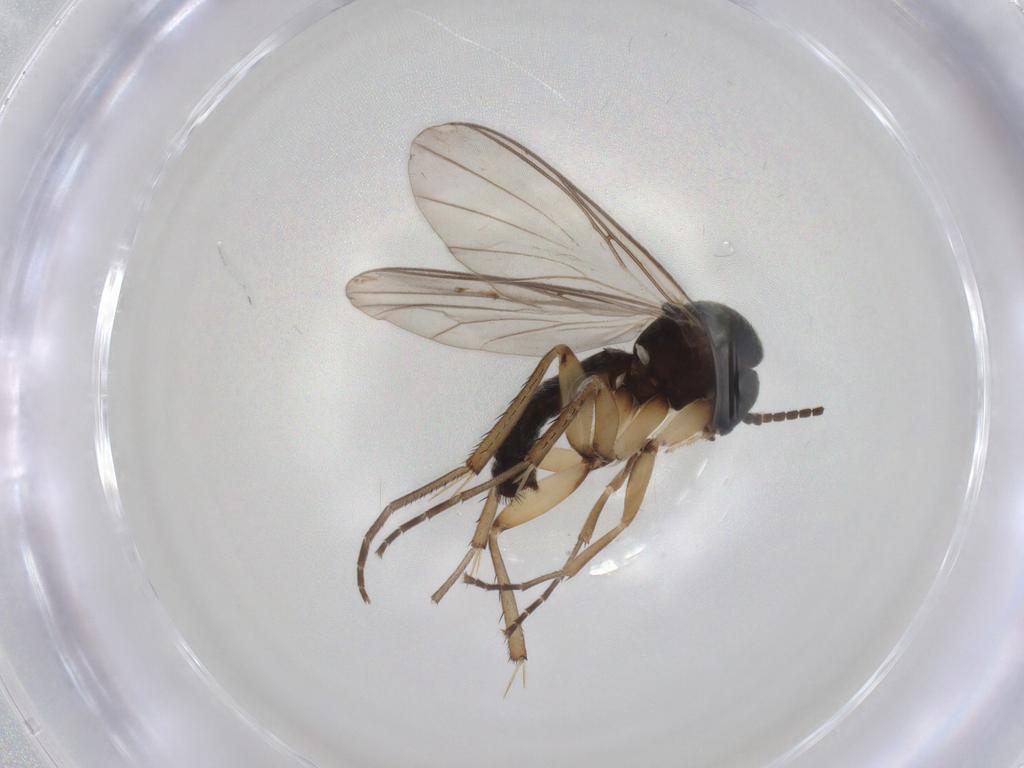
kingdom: Animalia
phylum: Arthropoda
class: Insecta
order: Diptera
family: Mycetophilidae
